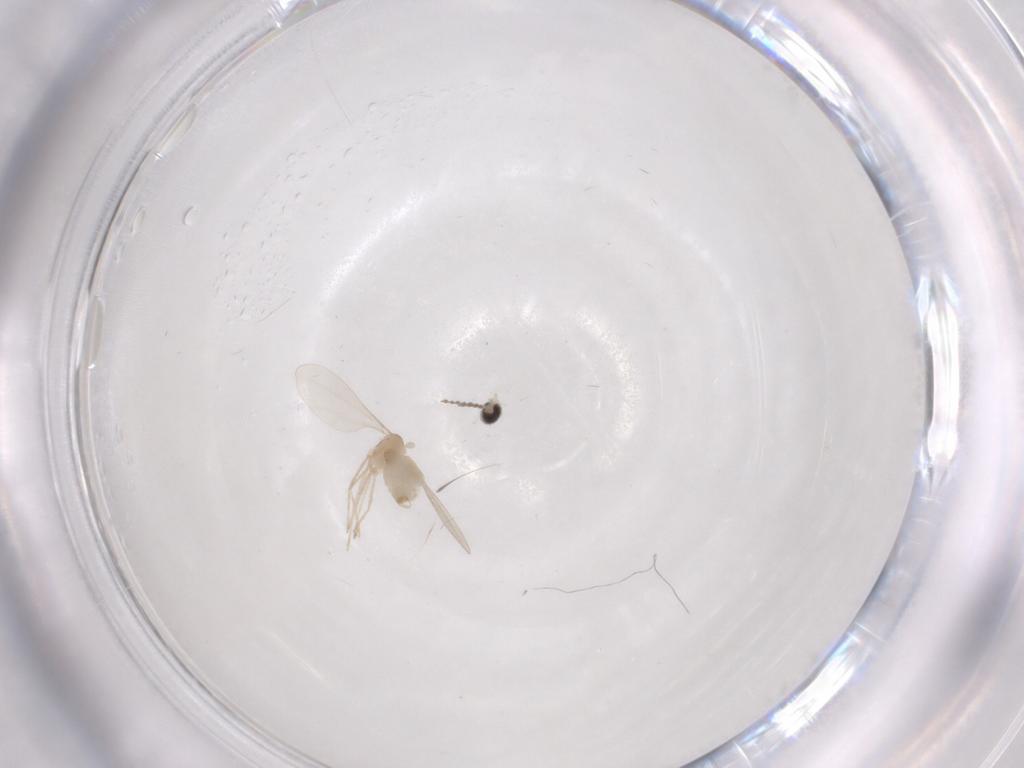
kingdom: Animalia
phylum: Arthropoda
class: Insecta
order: Diptera
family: Cecidomyiidae
